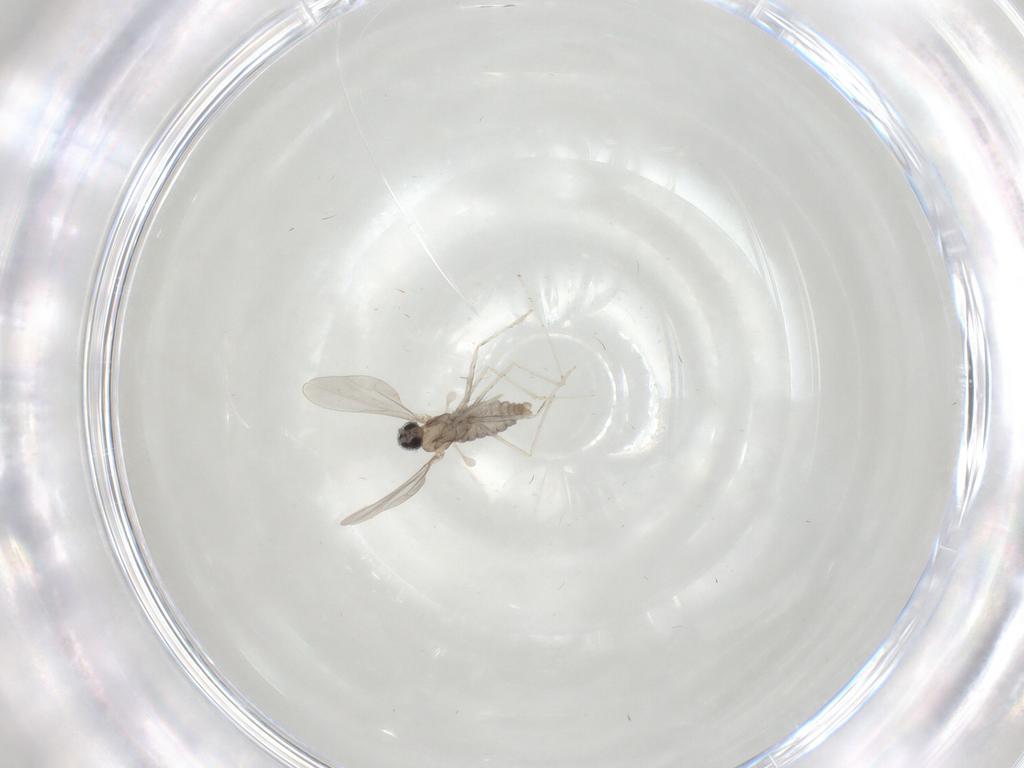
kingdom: Animalia
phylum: Arthropoda
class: Insecta
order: Diptera
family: Cecidomyiidae
